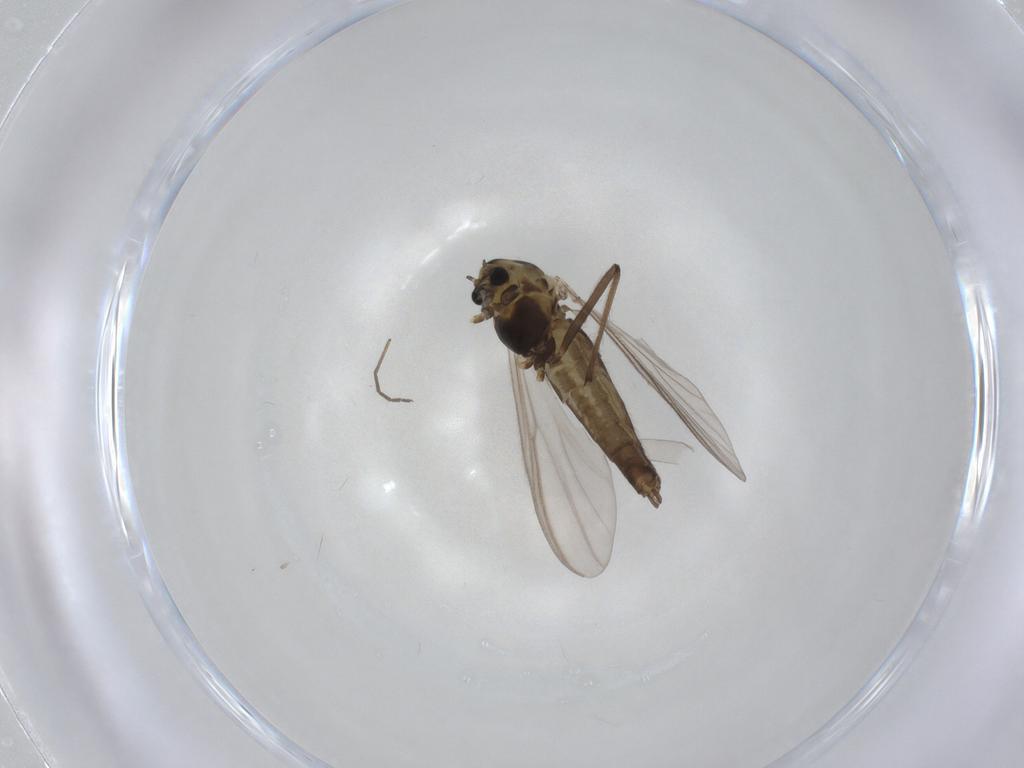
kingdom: Animalia
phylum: Arthropoda
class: Insecta
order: Diptera
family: Chironomidae
